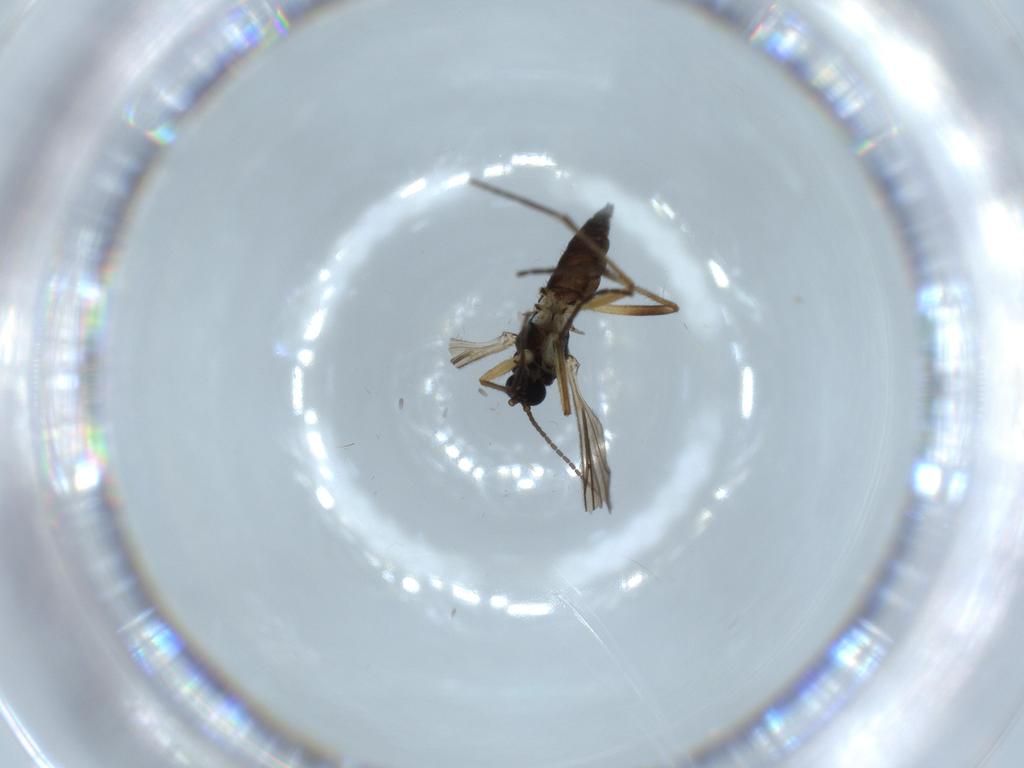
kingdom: Animalia
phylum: Arthropoda
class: Insecta
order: Diptera
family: Sciaridae
